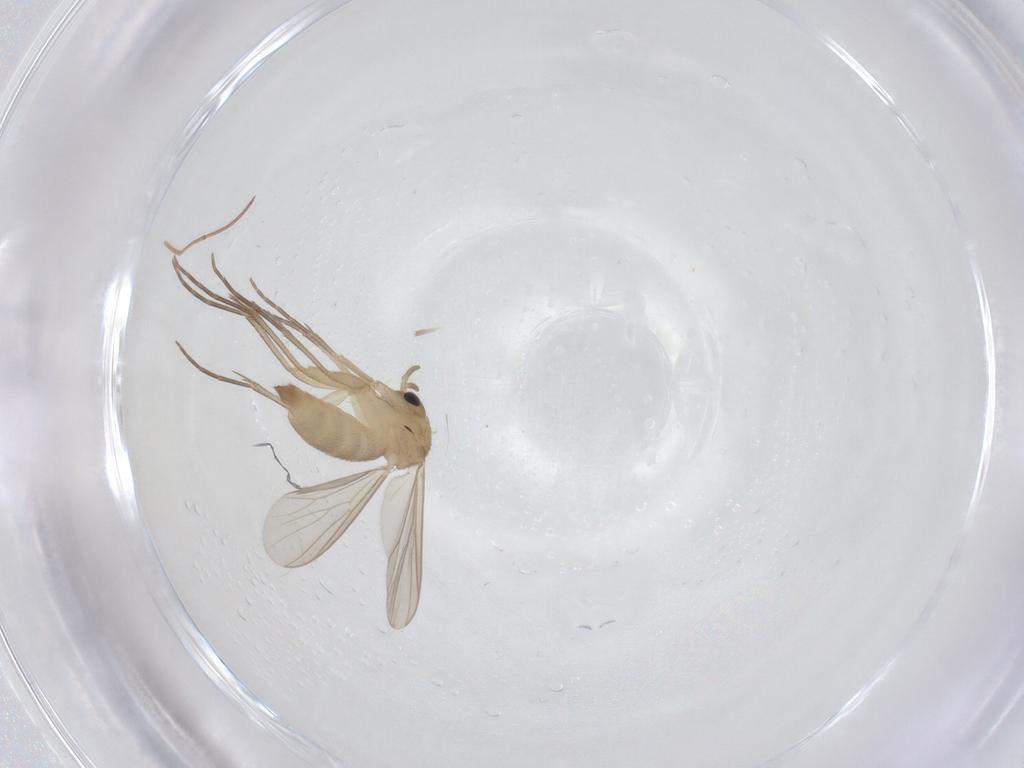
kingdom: Animalia
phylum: Arthropoda
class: Insecta
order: Diptera
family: Mycetophilidae
